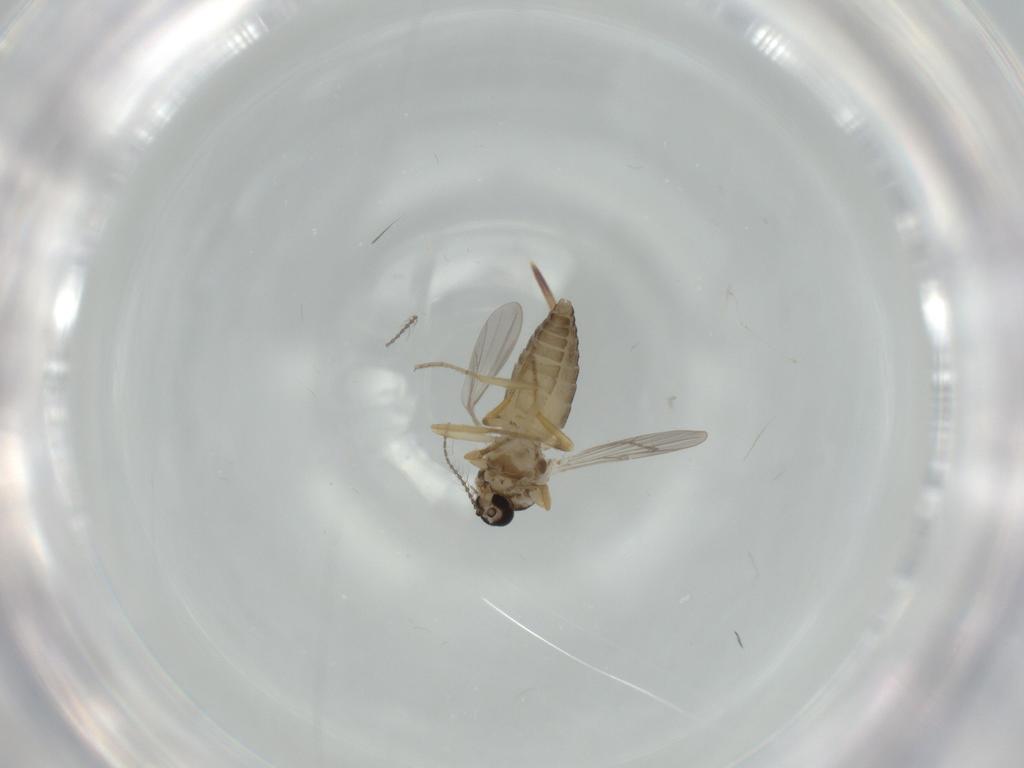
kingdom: Animalia
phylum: Arthropoda
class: Insecta
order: Diptera
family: Ceratopogonidae
